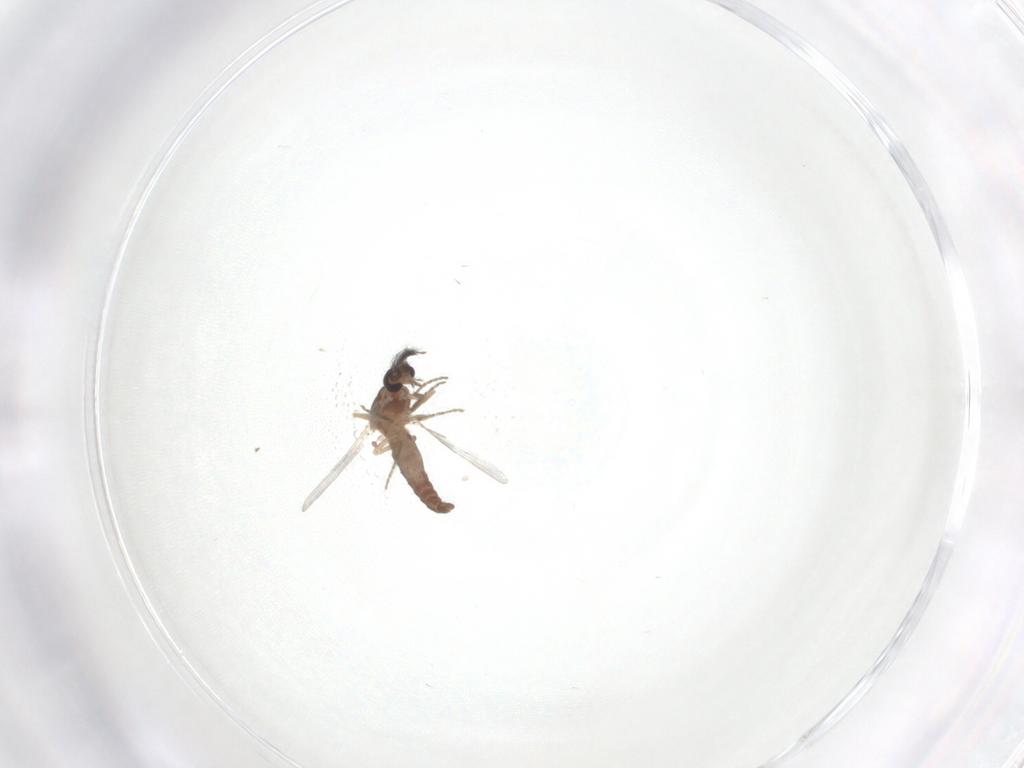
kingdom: Animalia
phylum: Arthropoda
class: Insecta
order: Diptera
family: Ceratopogonidae
